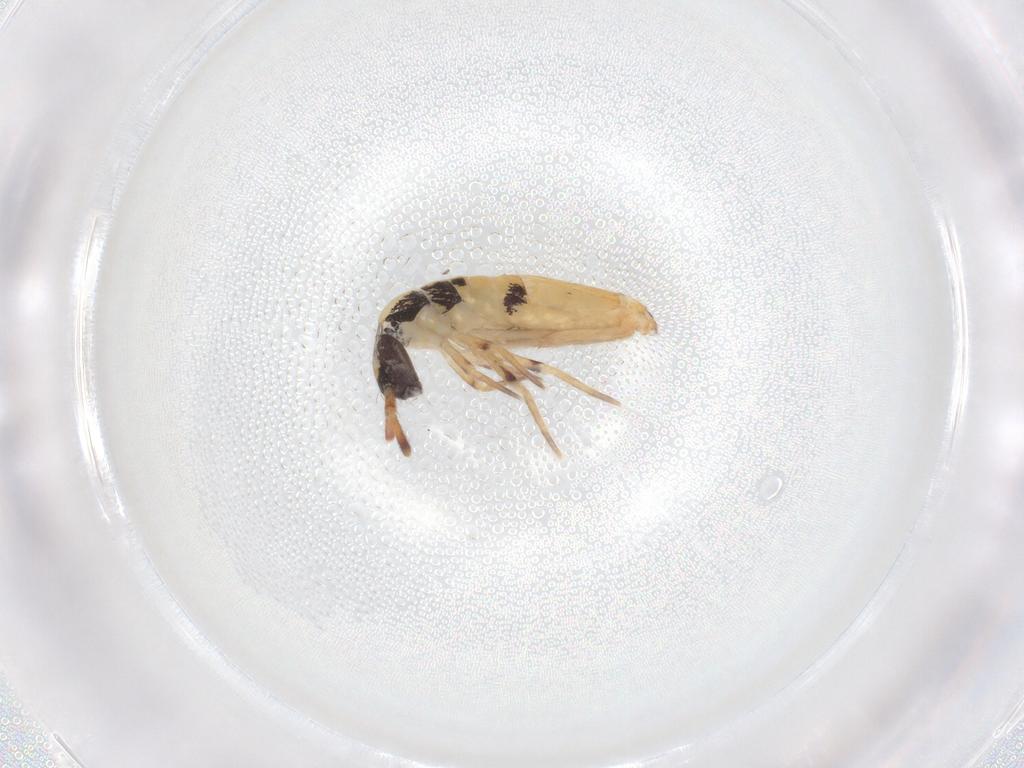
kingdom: Animalia
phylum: Arthropoda
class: Collembola
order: Entomobryomorpha
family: Entomobryidae
